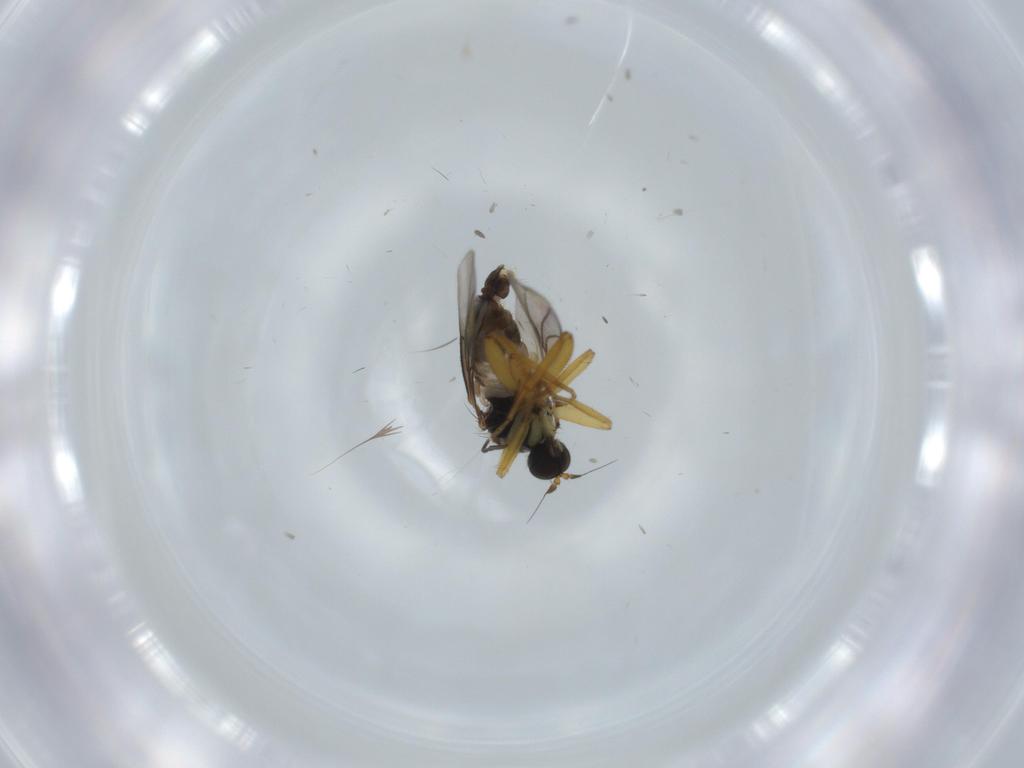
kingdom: Animalia
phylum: Arthropoda
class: Insecta
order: Diptera
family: Hybotidae
